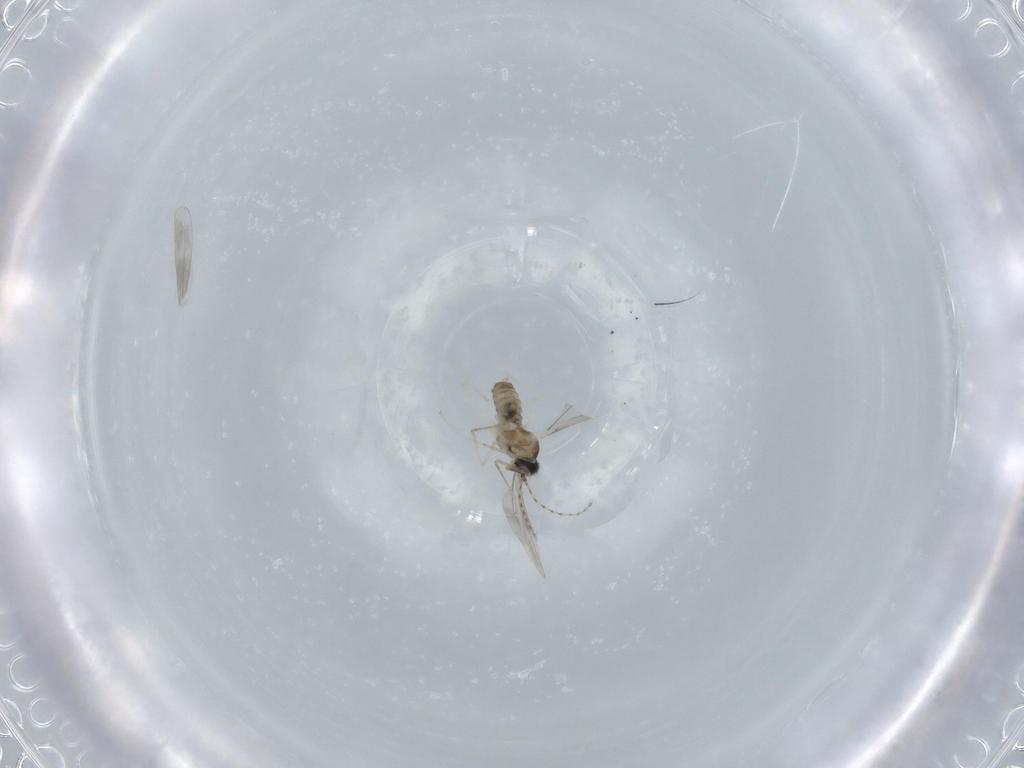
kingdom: Animalia
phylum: Arthropoda
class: Insecta
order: Diptera
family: Cecidomyiidae
